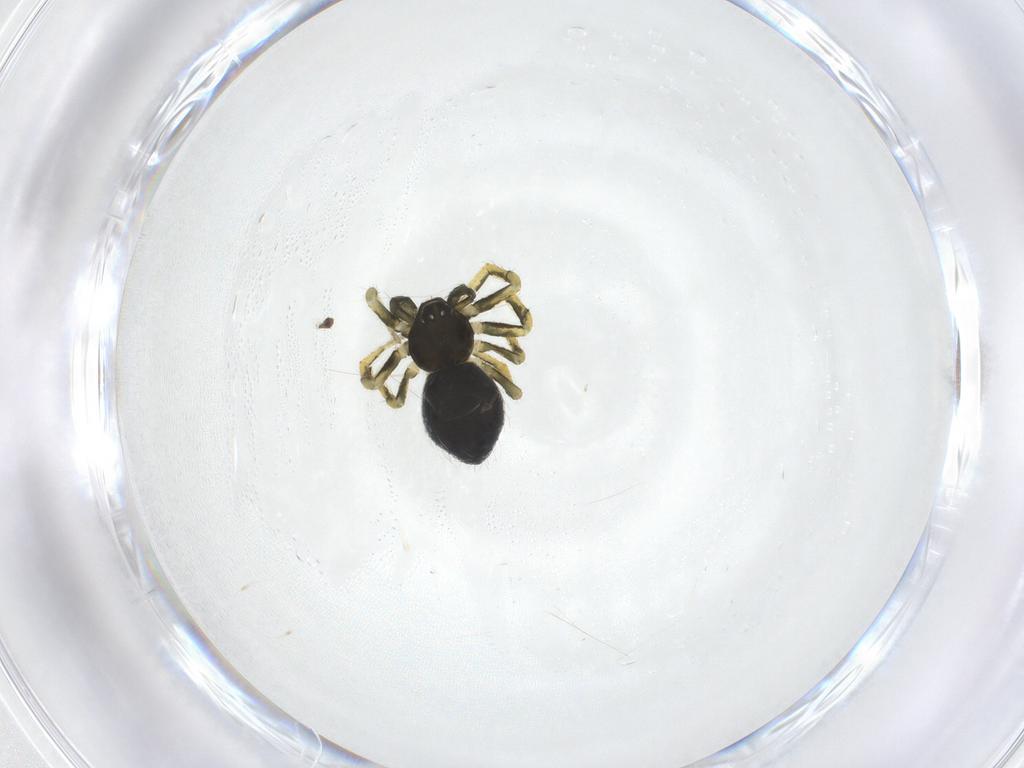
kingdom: Animalia
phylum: Arthropoda
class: Arachnida
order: Araneae
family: Theridiidae
